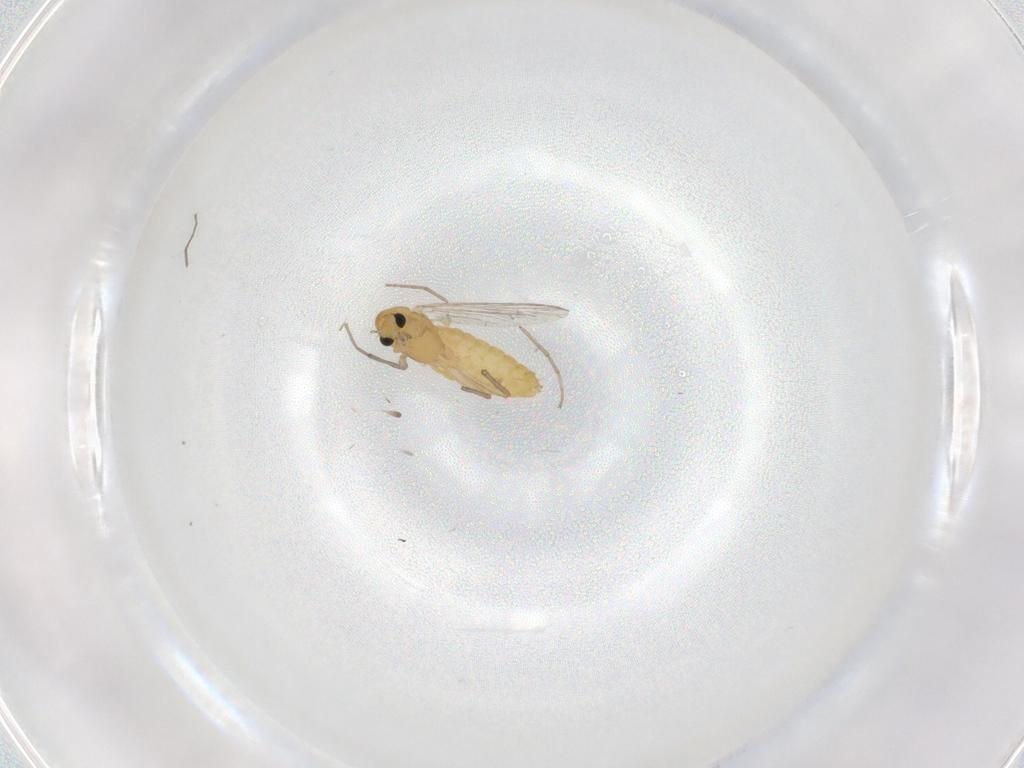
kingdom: Animalia
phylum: Arthropoda
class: Insecta
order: Diptera
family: Chironomidae
